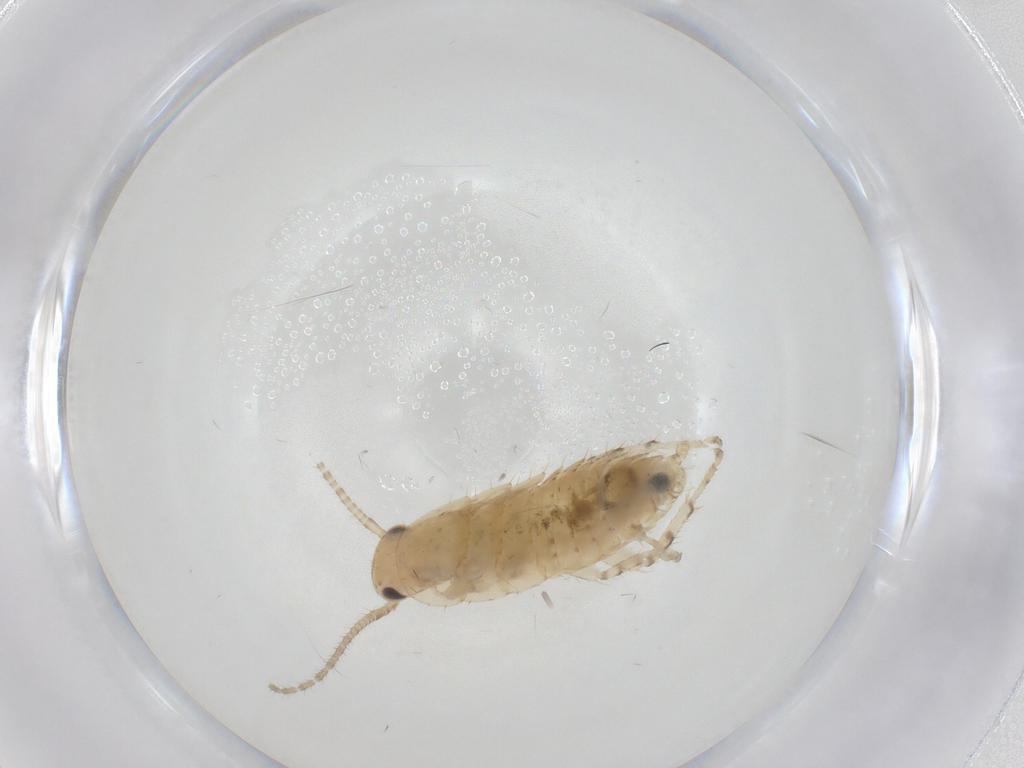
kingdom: Animalia
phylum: Arthropoda
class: Insecta
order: Blattodea
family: Ectobiidae
